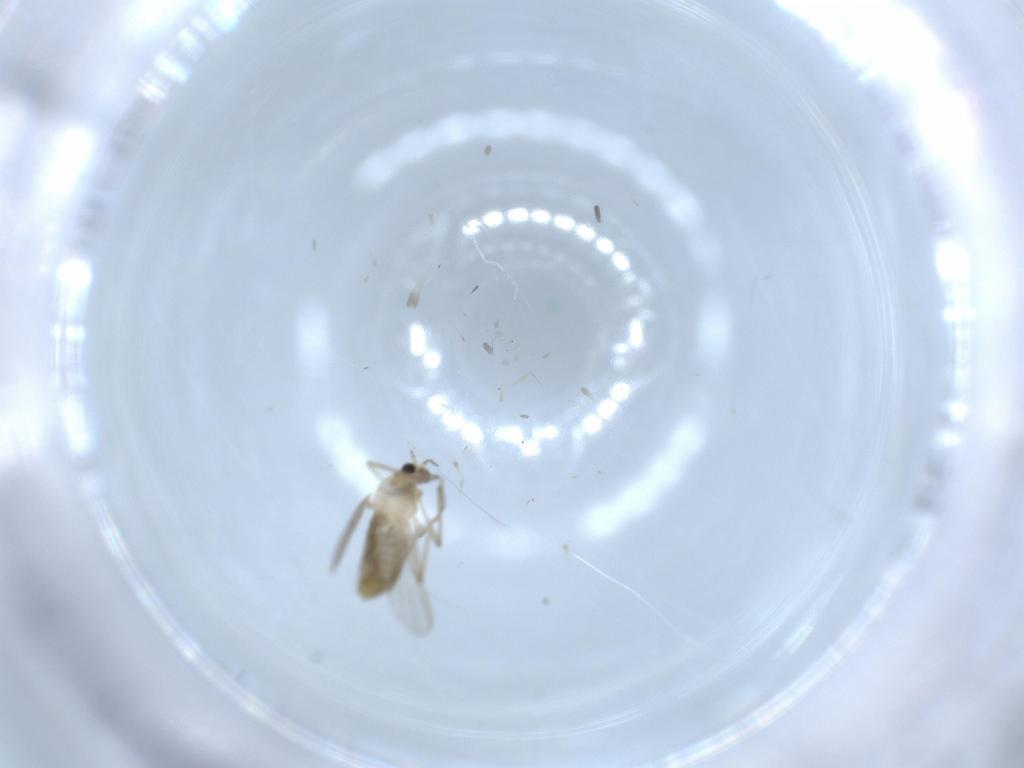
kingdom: Animalia
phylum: Arthropoda
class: Insecta
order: Diptera
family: Chironomidae
